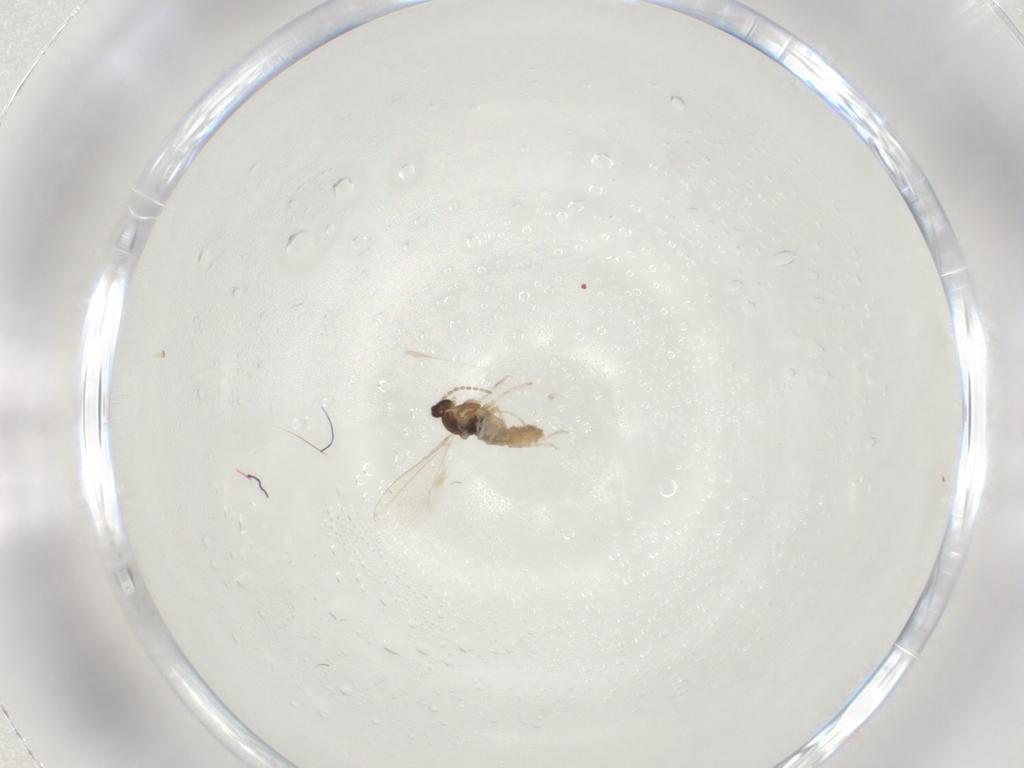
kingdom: Animalia
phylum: Arthropoda
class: Insecta
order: Diptera
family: Cecidomyiidae
